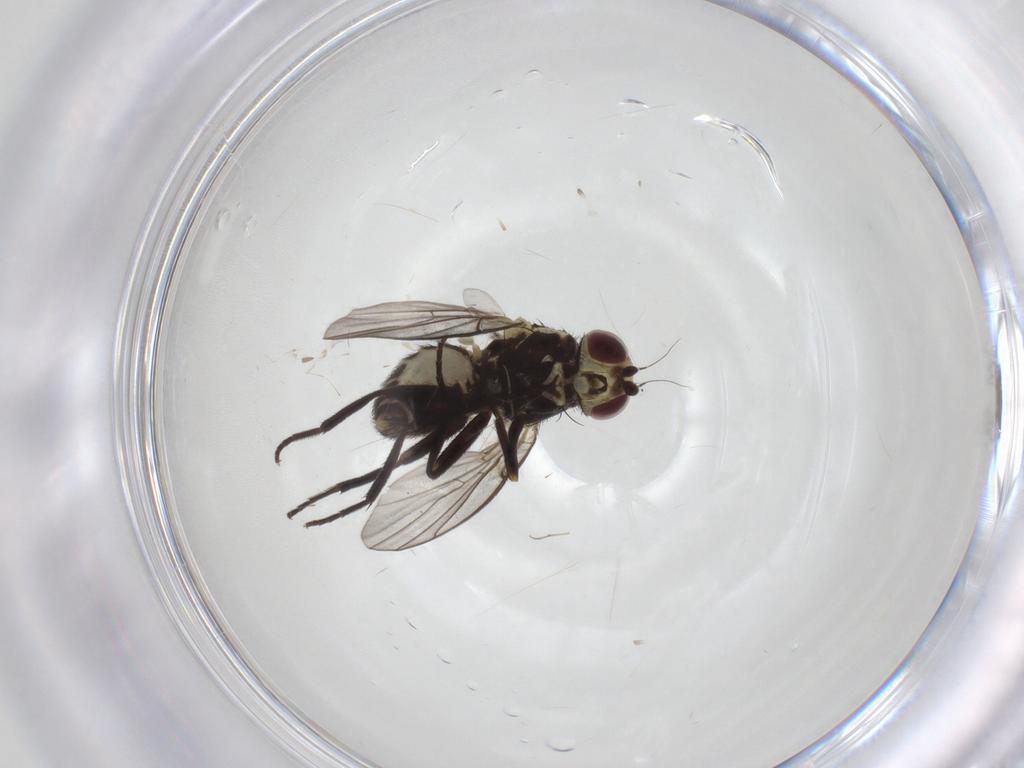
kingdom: Animalia
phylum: Arthropoda
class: Insecta
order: Diptera
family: Agromyzidae
